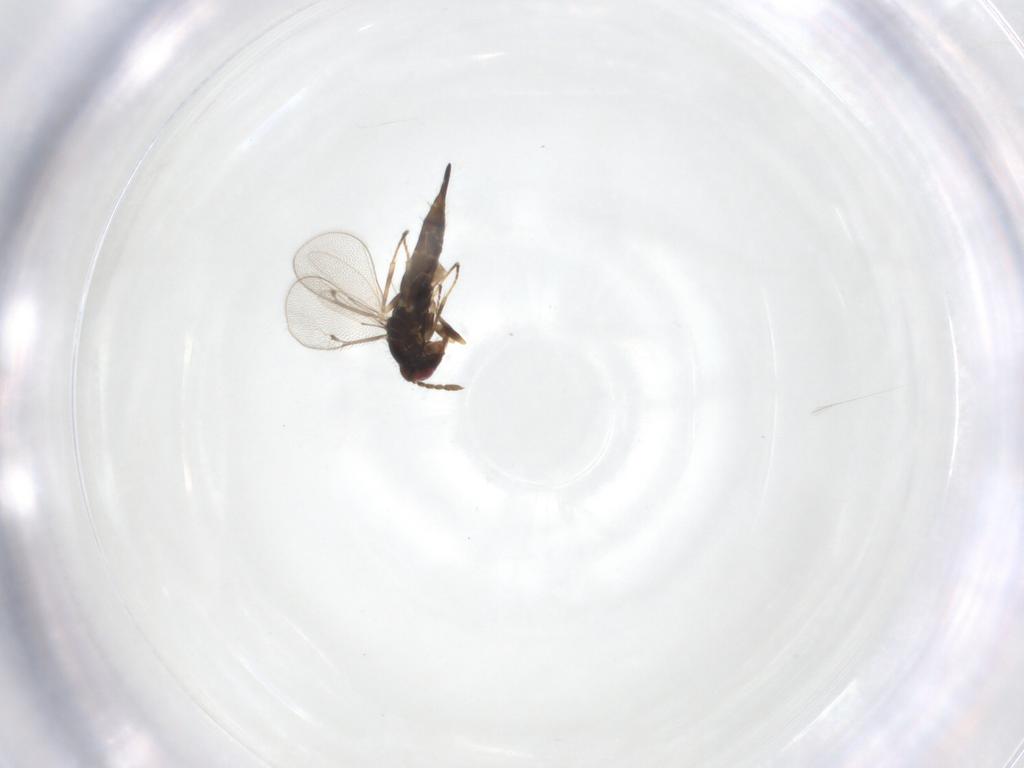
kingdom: Animalia
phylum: Arthropoda
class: Insecta
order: Hymenoptera
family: Eulophidae
